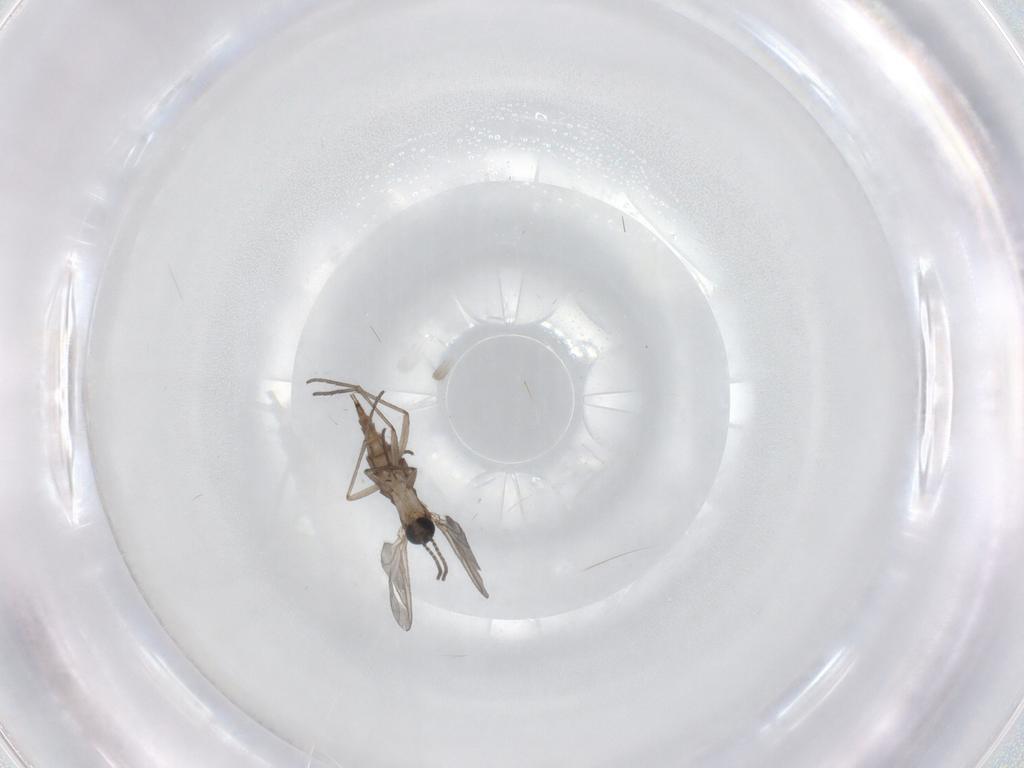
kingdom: Animalia
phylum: Arthropoda
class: Insecta
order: Diptera
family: Sciaridae
